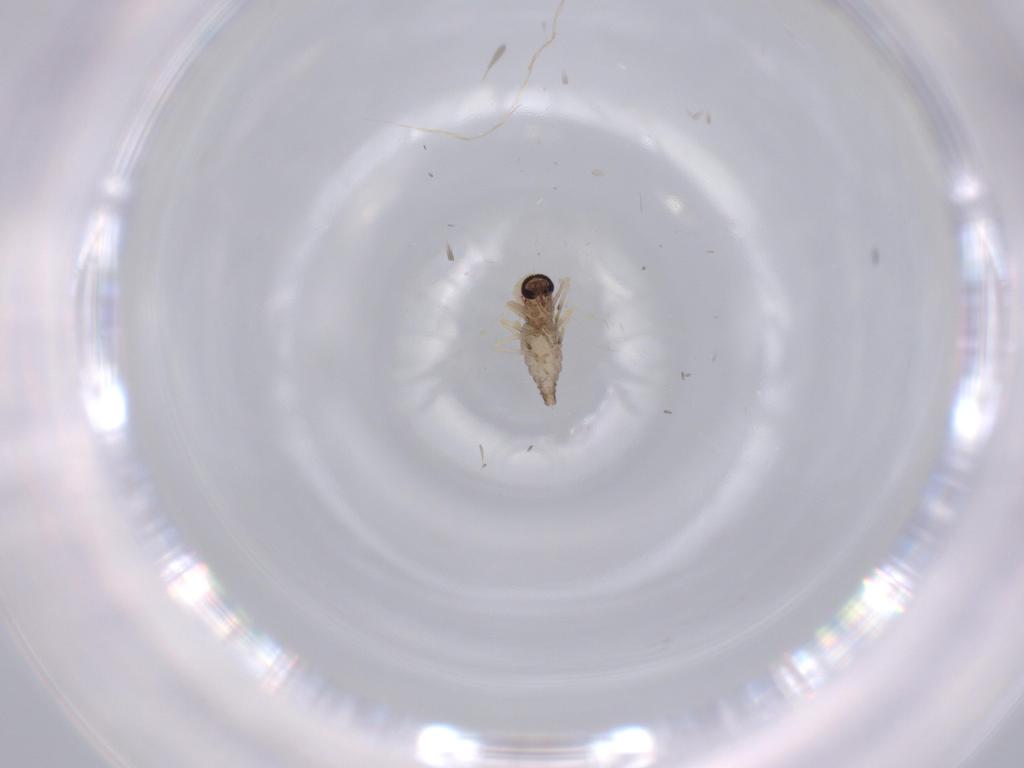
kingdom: Animalia
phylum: Arthropoda
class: Insecta
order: Diptera
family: Ceratopogonidae
